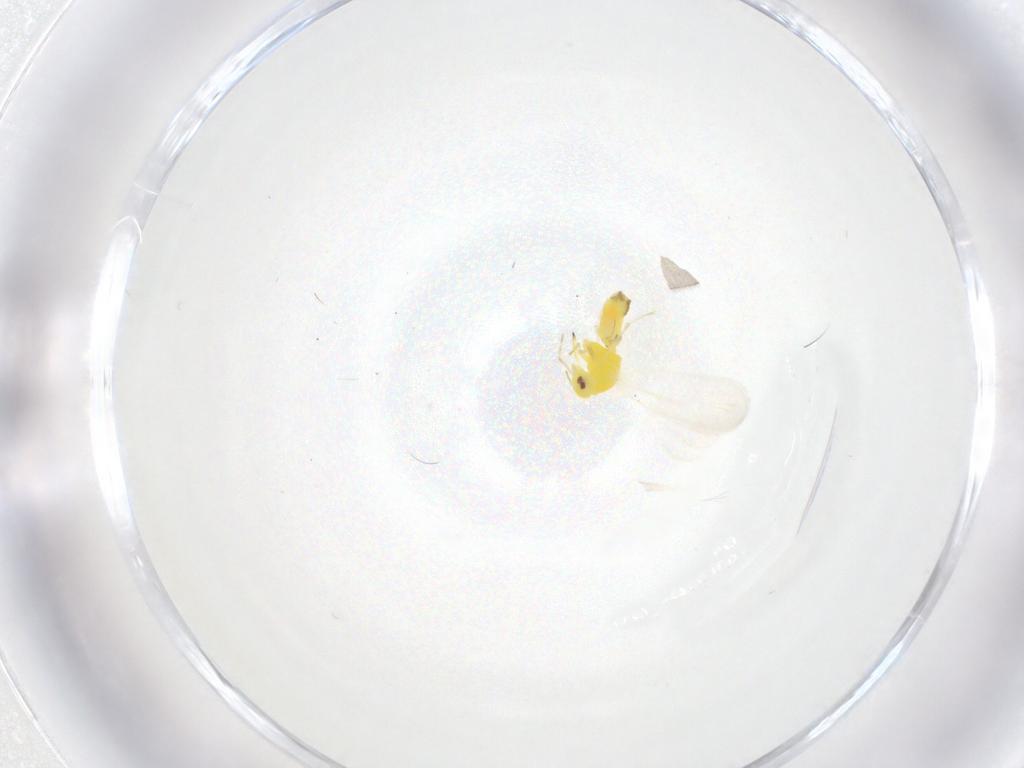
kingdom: Animalia
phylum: Arthropoda
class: Insecta
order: Hemiptera
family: Aleyrodidae
